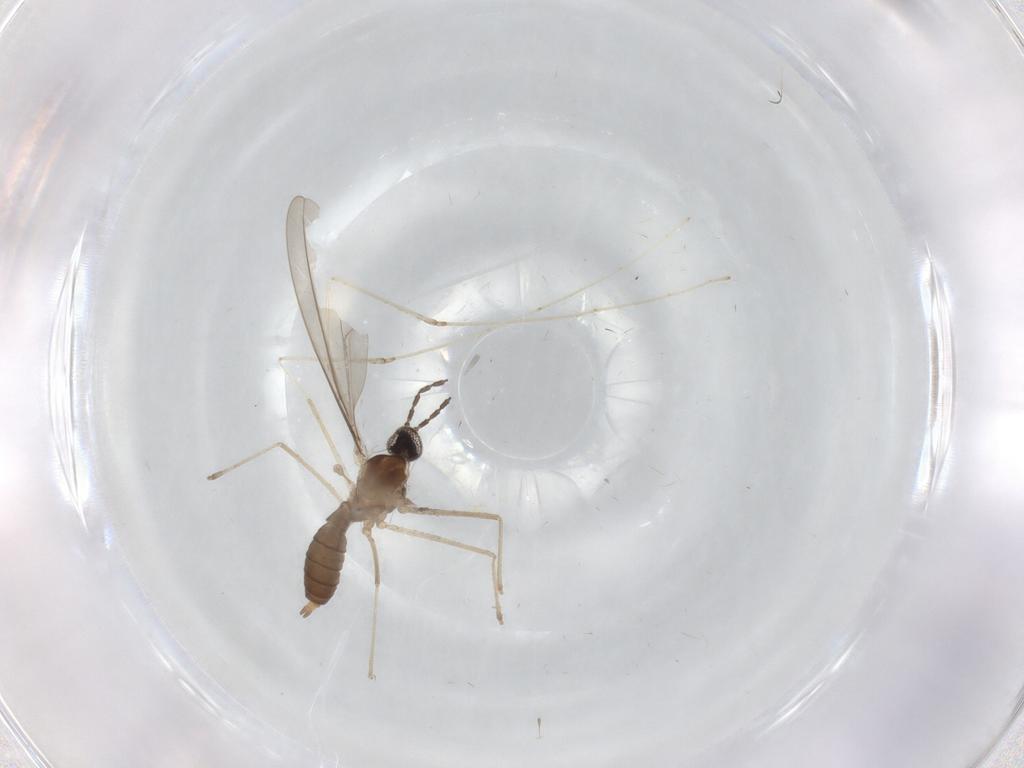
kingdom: Animalia
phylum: Arthropoda
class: Insecta
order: Diptera
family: Cecidomyiidae
